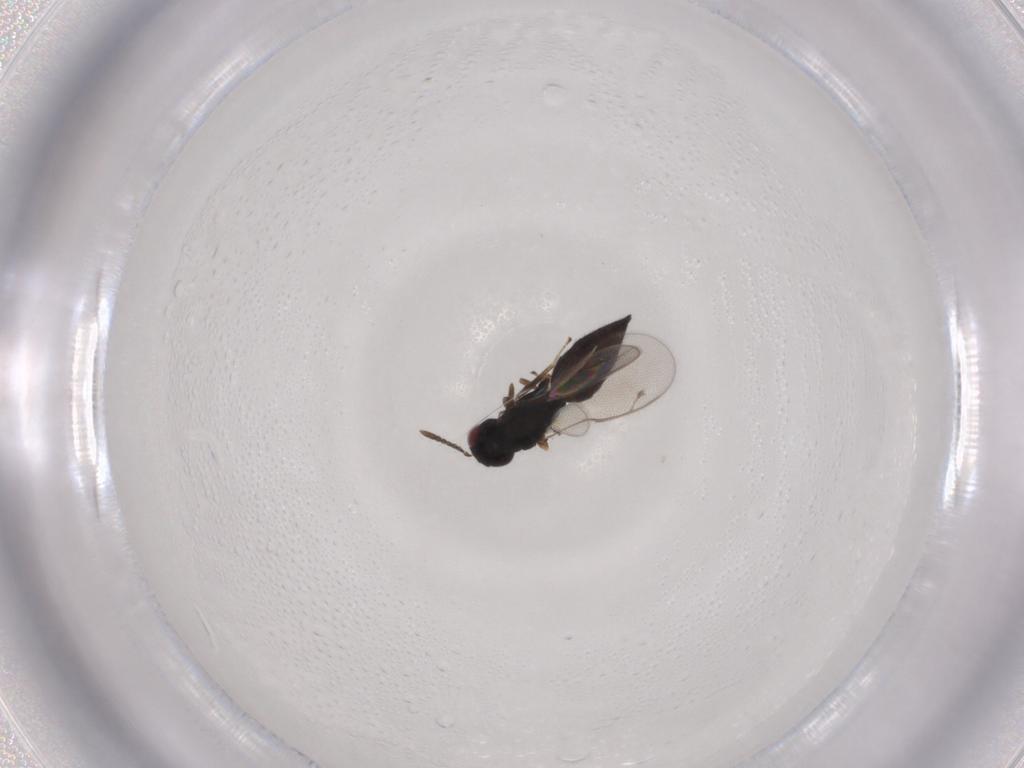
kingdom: Animalia
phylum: Arthropoda
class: Insecta
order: Hymenoptera
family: Pteromalidae
